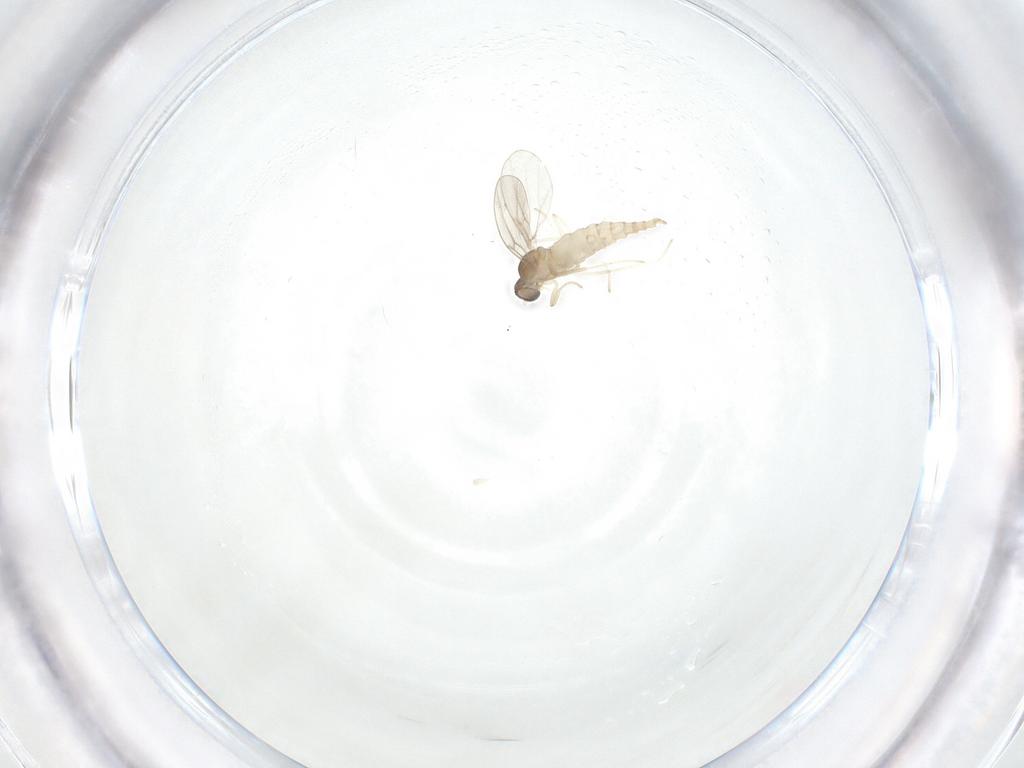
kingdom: Animalia
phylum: Arthropoda
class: Insecta
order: Diptera
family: Cecidomyiidae
